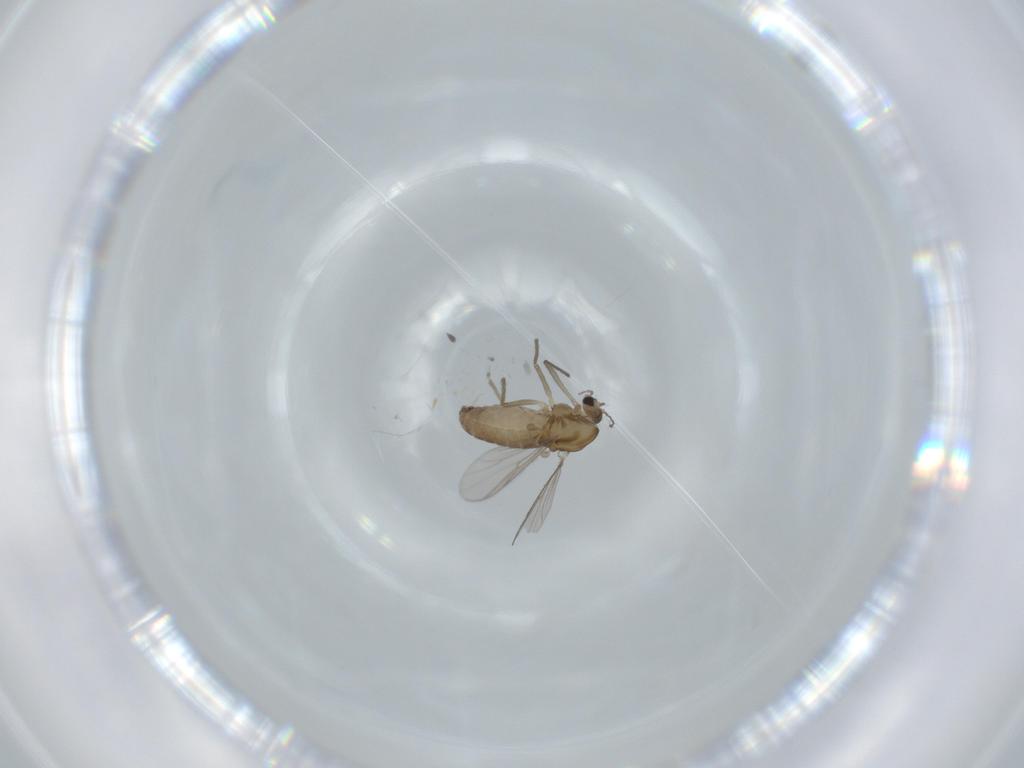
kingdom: Animalia
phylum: Arthropoda
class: Insecta
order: Diptera
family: Chironomidae
